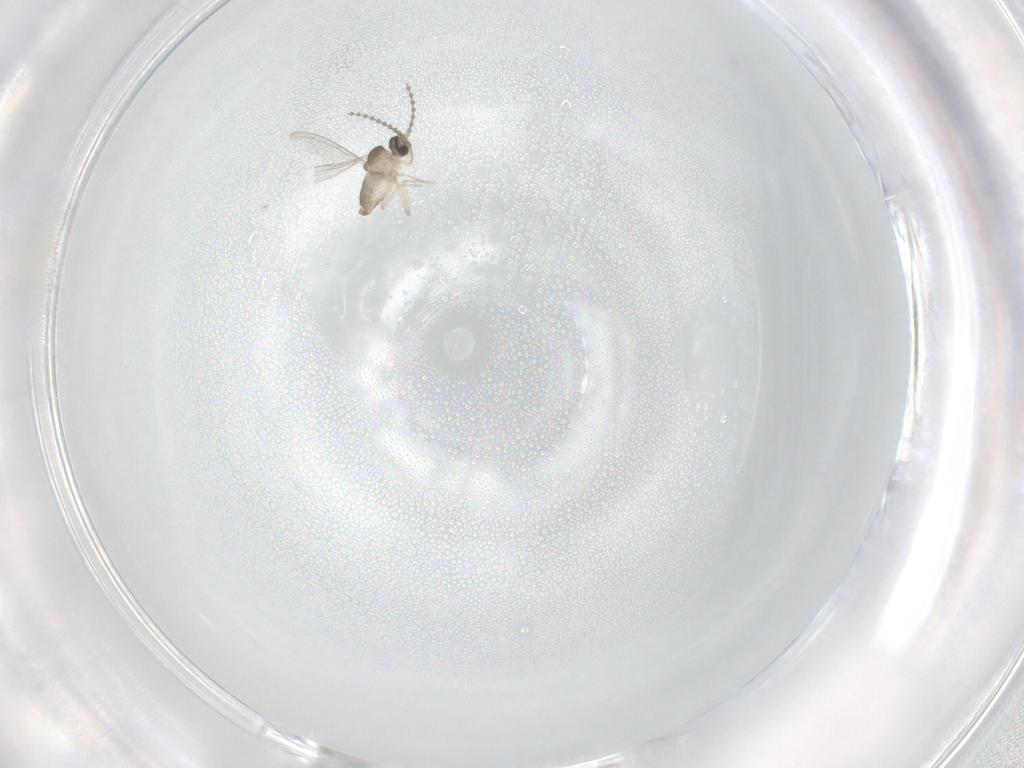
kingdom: Animalia
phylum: Arthropoda
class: Insecta
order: Diptera
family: Cecidomyiidae
